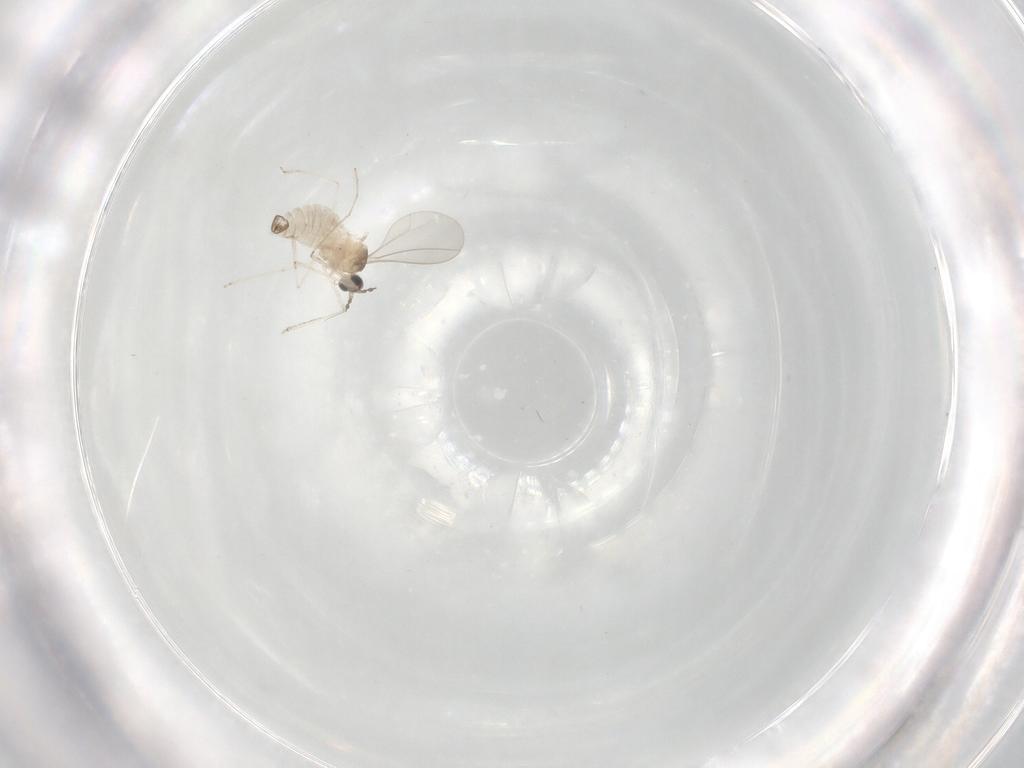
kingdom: Animalia
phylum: Arthropoda
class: Insecta
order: Diptera
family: Cecidomyiidae
